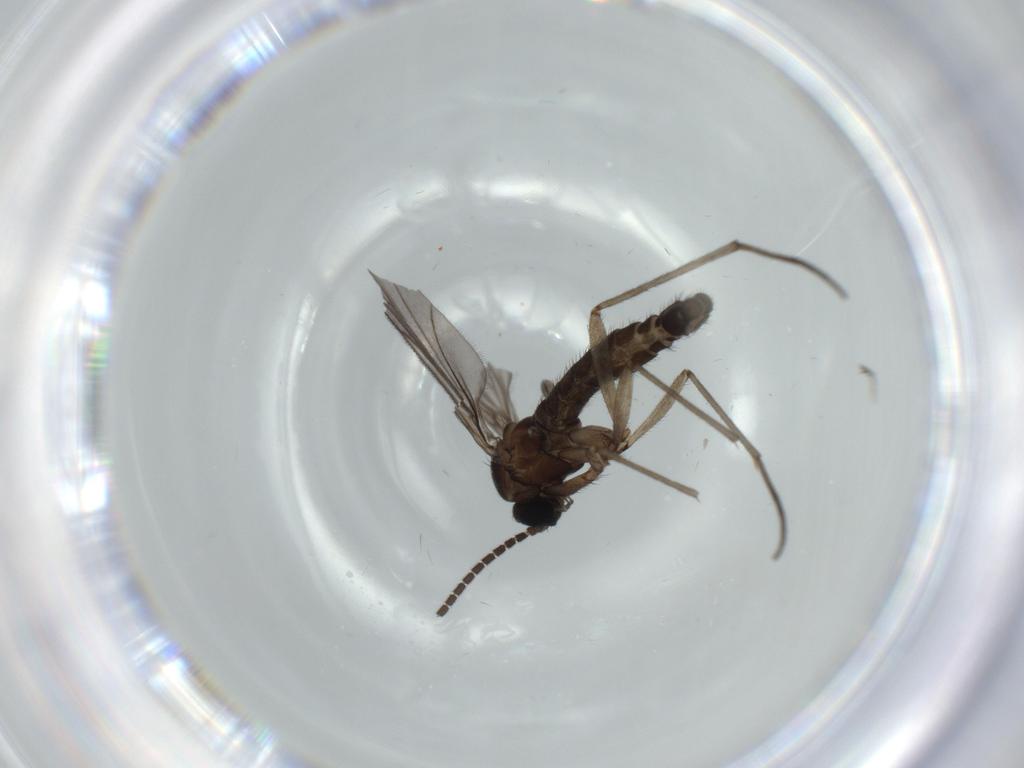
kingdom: Animalia
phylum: Arthropoda
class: Insecta
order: Diptera
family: Sciaridae
